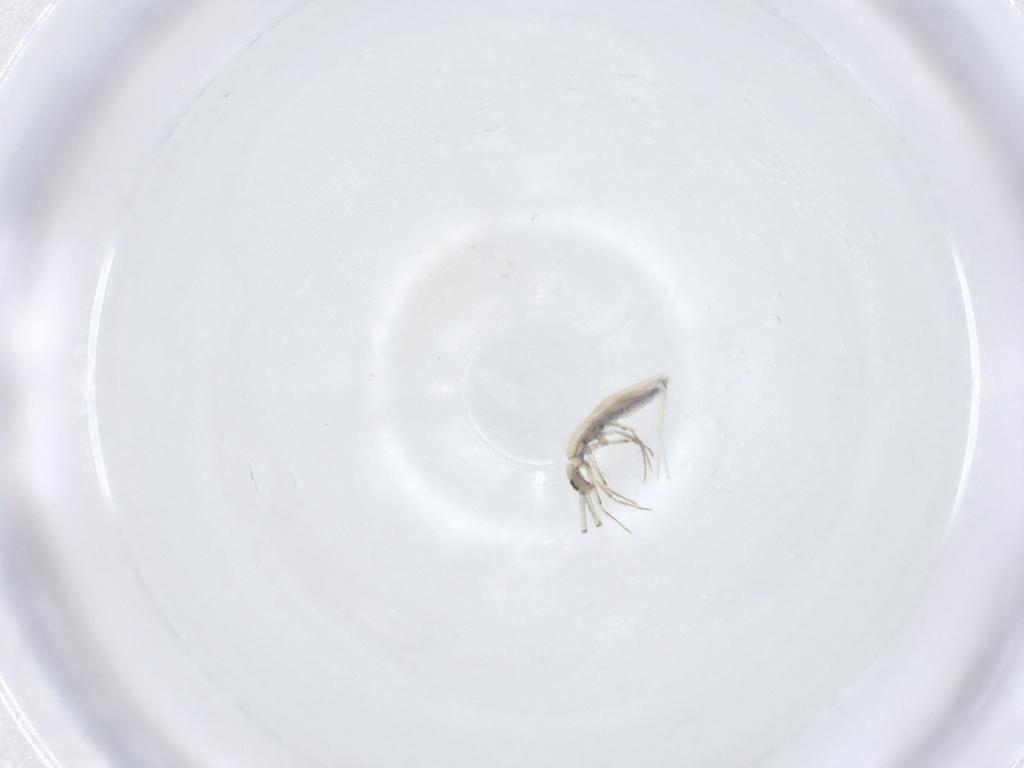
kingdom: Animalia
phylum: Arthropoda
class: Collembola
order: Entomobryomorpha
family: Entomobryidae
